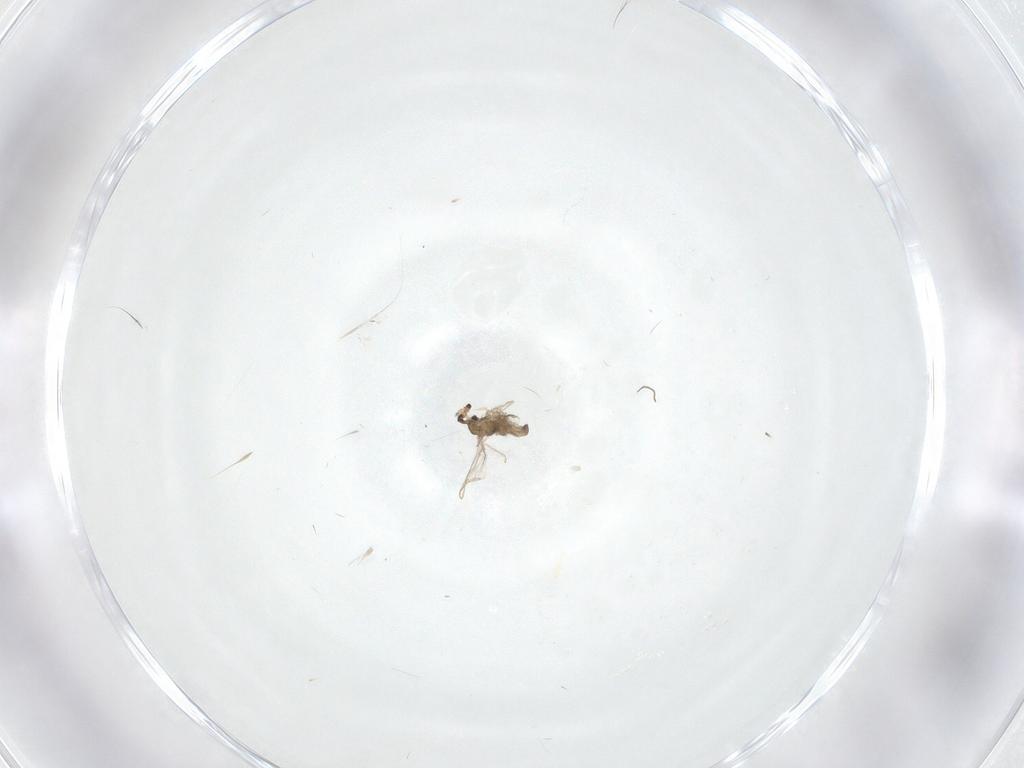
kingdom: Animalia
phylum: Arthropoda
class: Insecta
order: Diptera
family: Cecidomyiidae
